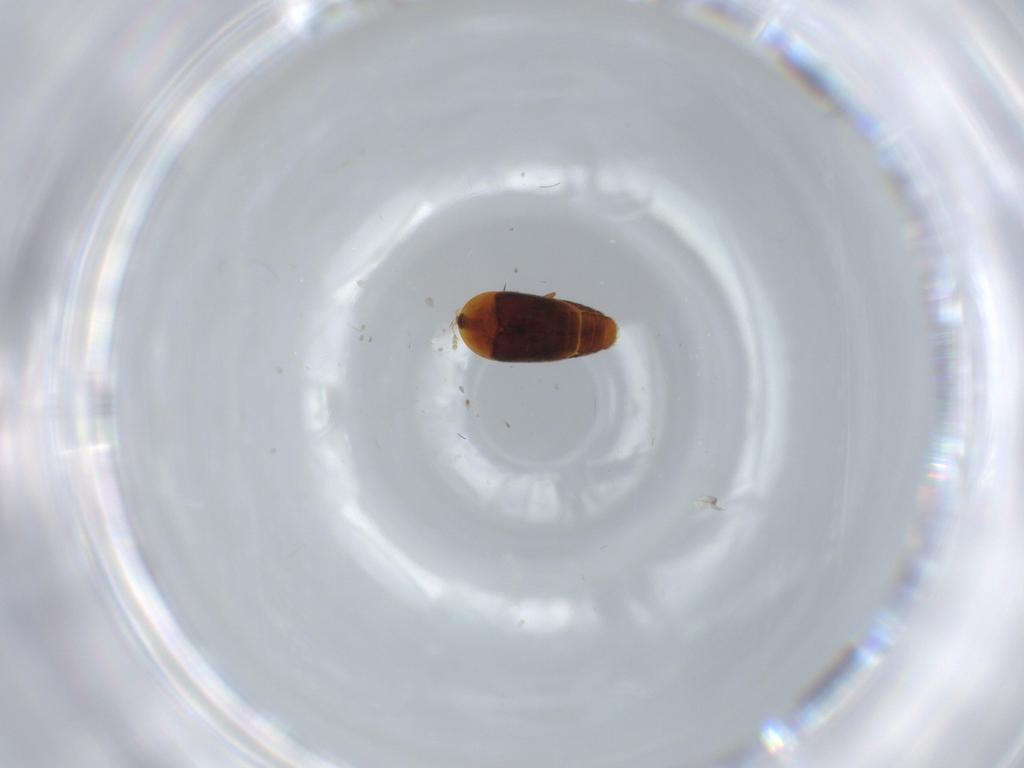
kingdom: Animalia
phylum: Arthropoda
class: Insecta
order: Coleoptera
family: Corylophidae
